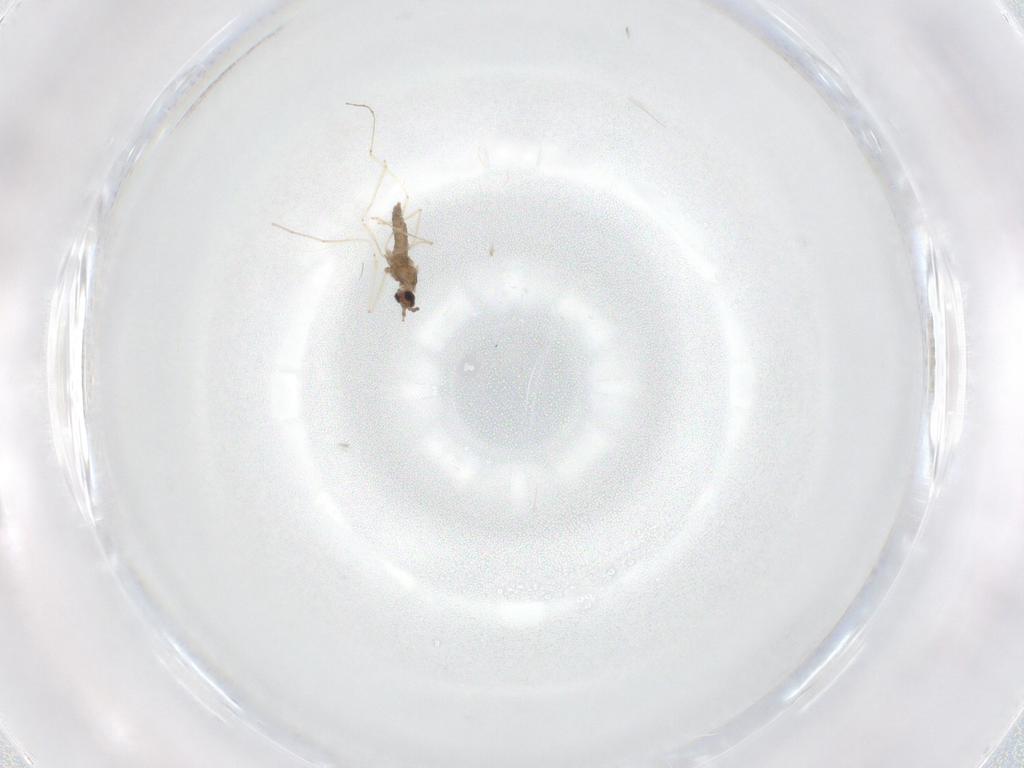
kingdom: Animalia
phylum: Arthropoda
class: Insecta
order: Diptera
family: Cecidomyiidae
